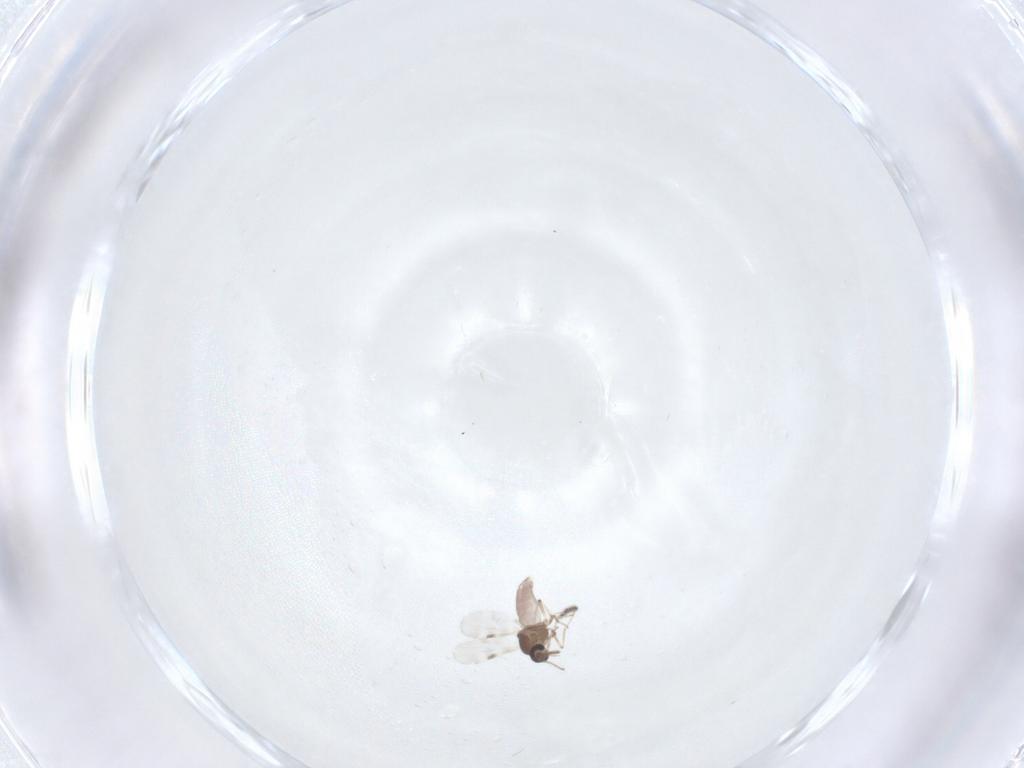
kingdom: Animalia
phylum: Arthropoda
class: Insecta
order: Diptera
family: Sciaridae
